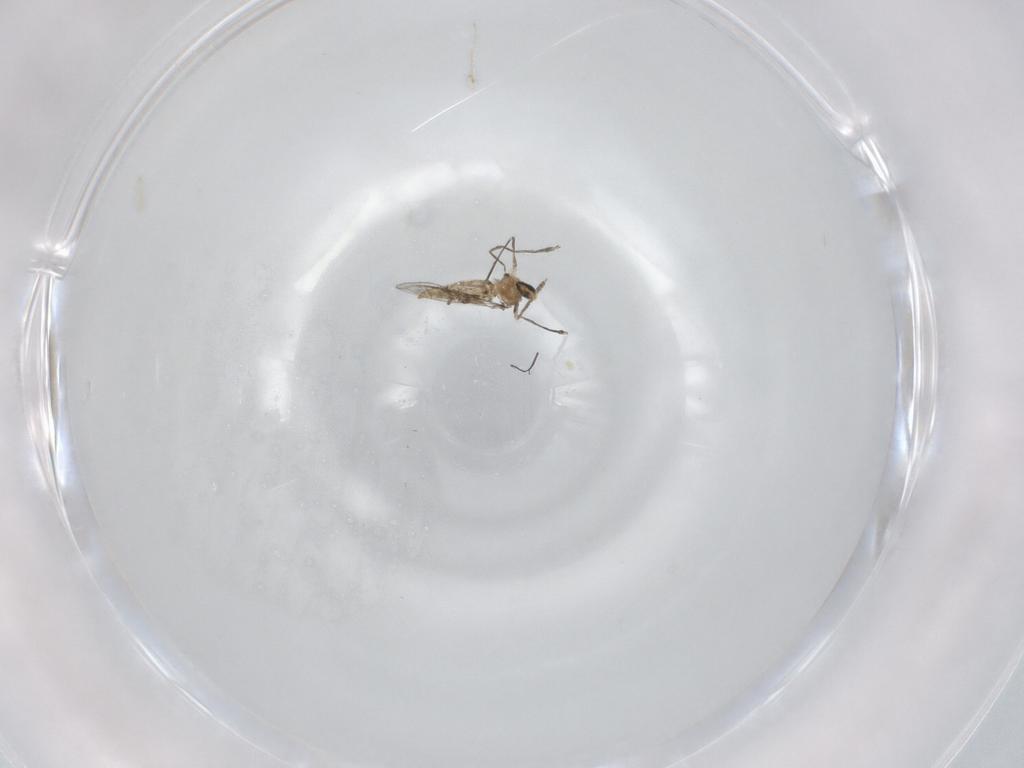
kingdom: Animalia
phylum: Arthropoda
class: Insecta
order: Diptera
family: Cecidomyiidae
